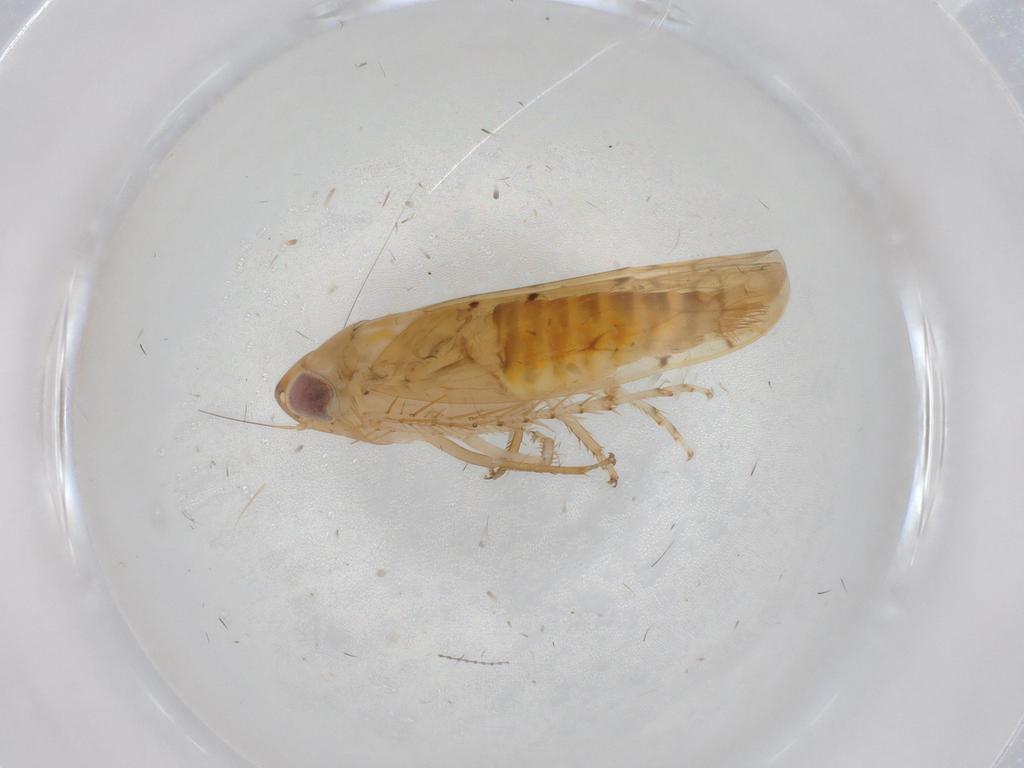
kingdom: Animalia
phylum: Arthropoda
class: Insecta
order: Hemiptera
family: Cicadellidae
